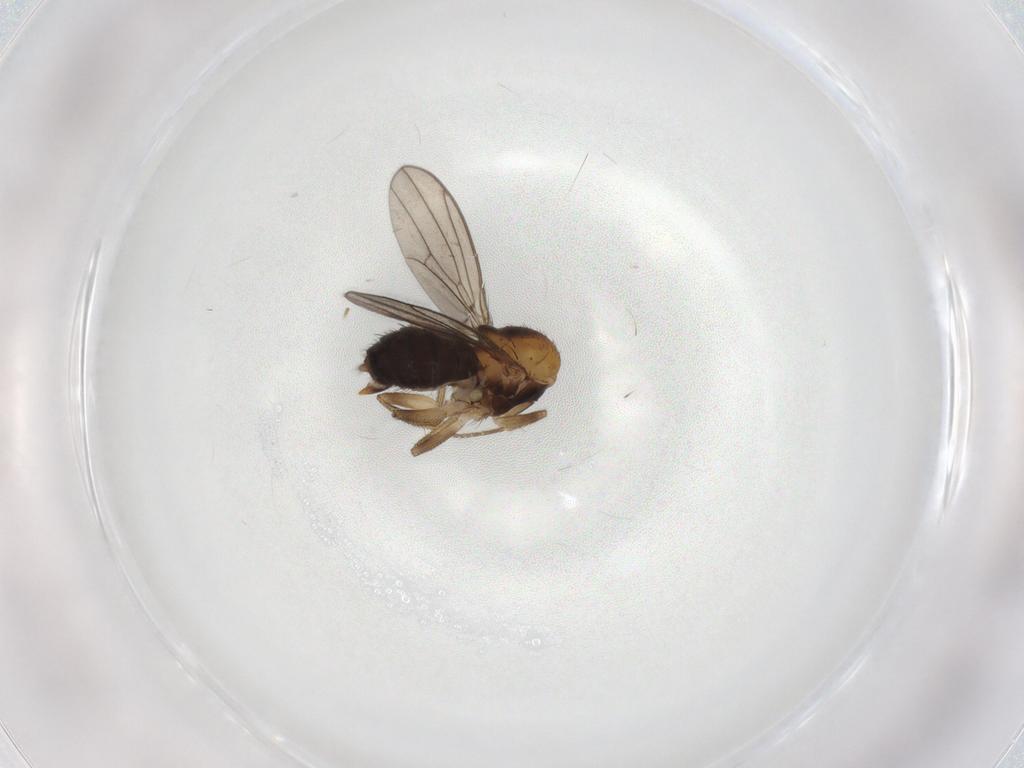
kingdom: Animalia
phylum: Arthropoda
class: Insecta
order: Diptera
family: Drosophilidae
